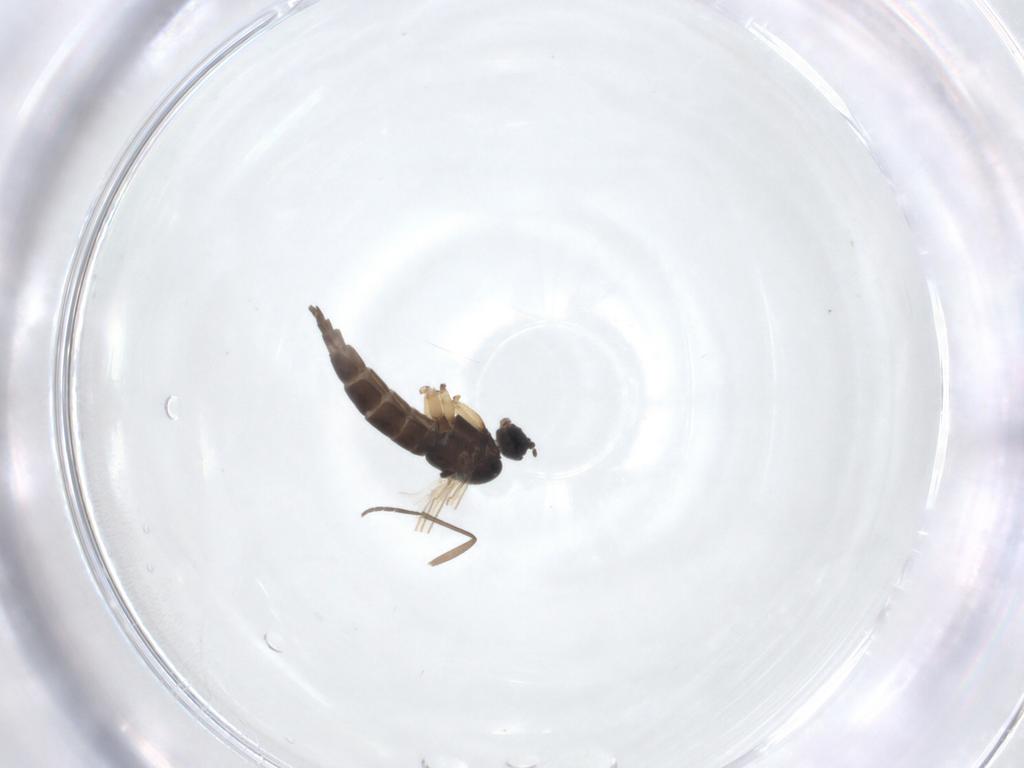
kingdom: Animalia
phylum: Arthropoda
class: Insecta
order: Diptera
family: Sciaridae
